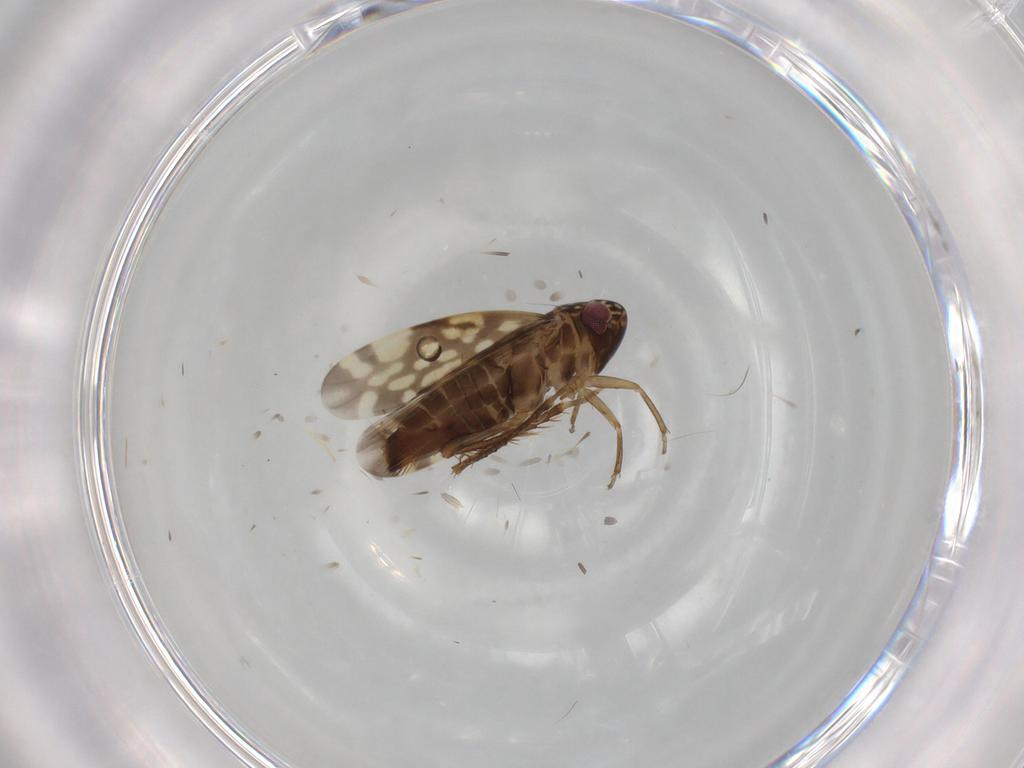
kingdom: Animalia
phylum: Arthropoda
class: Insecta
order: Hemiptera
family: Cicadellidae
